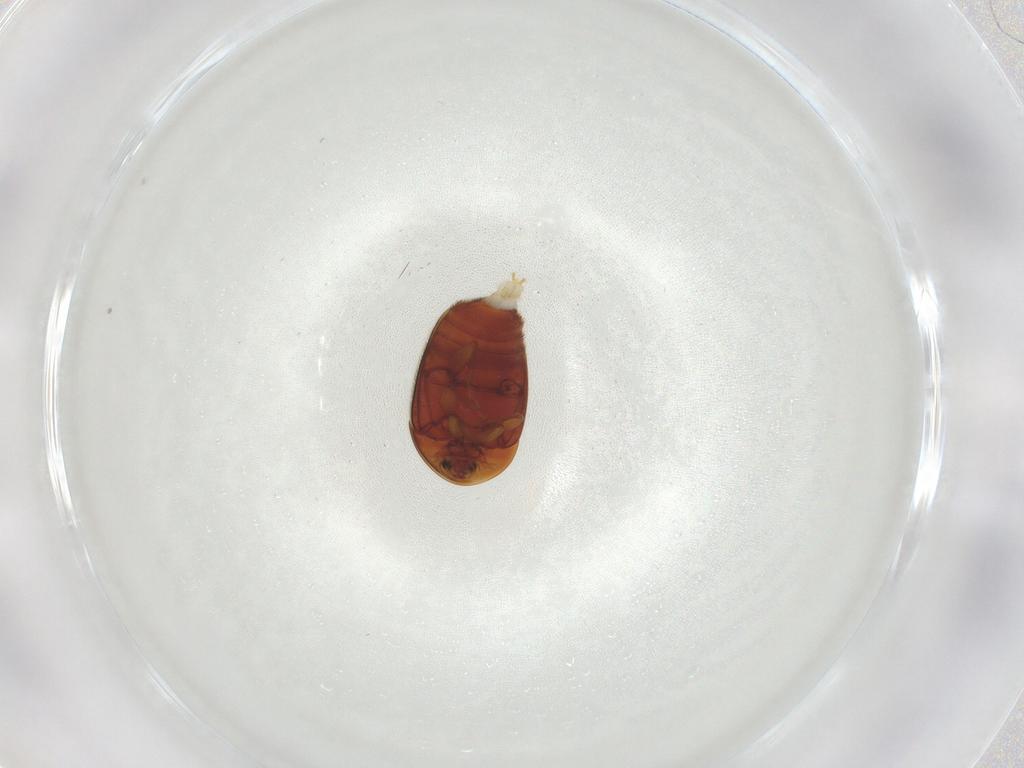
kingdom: Animalia
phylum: Arthropoda
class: Insecta
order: Coleoptera
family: Corylophidae
